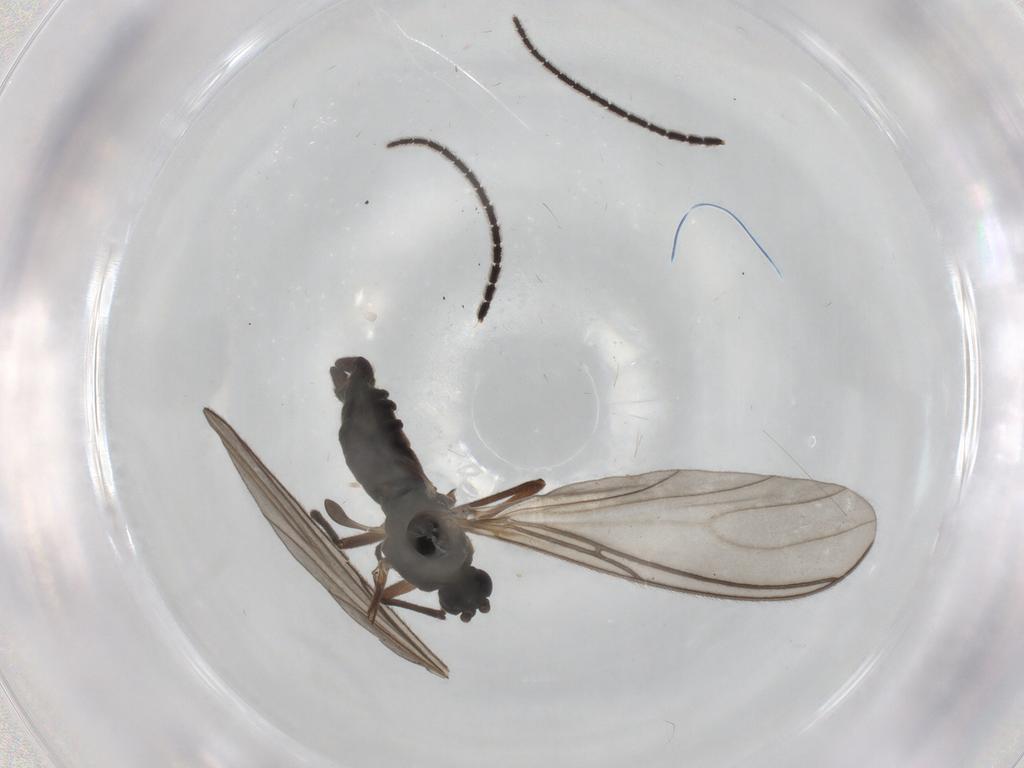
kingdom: Animalia
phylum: Arthropoda
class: Insecta
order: Diptera
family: Sciaridae
